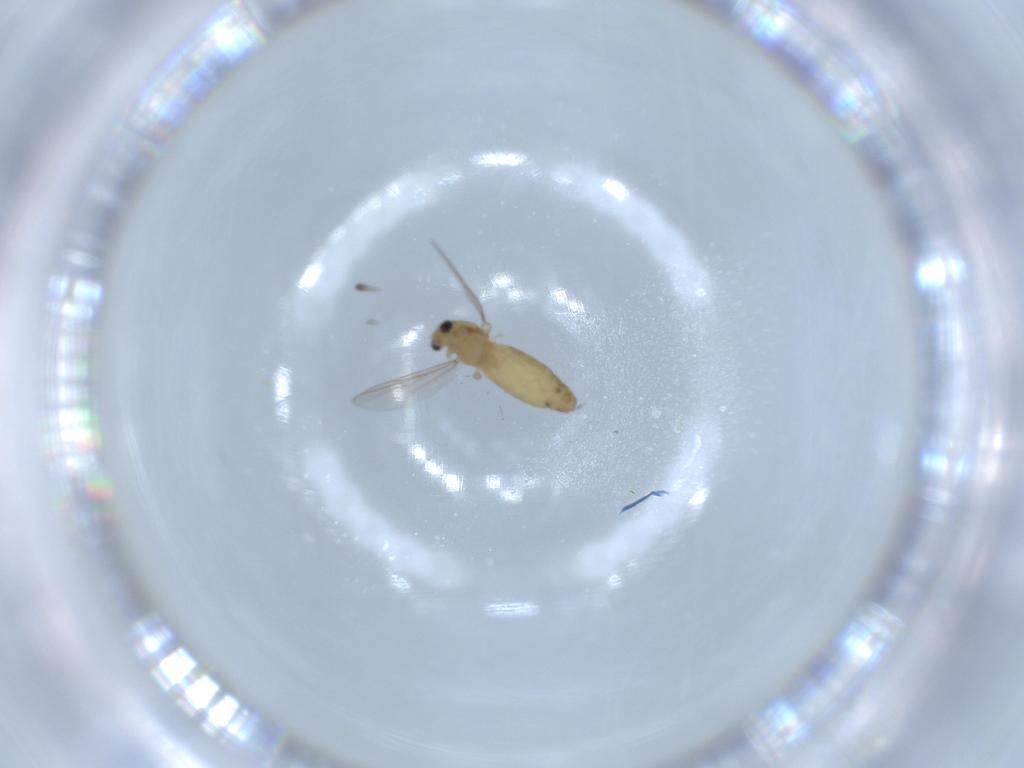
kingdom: Animalia
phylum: Arthropoda
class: Insecta
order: Diptera
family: Chironomidae
